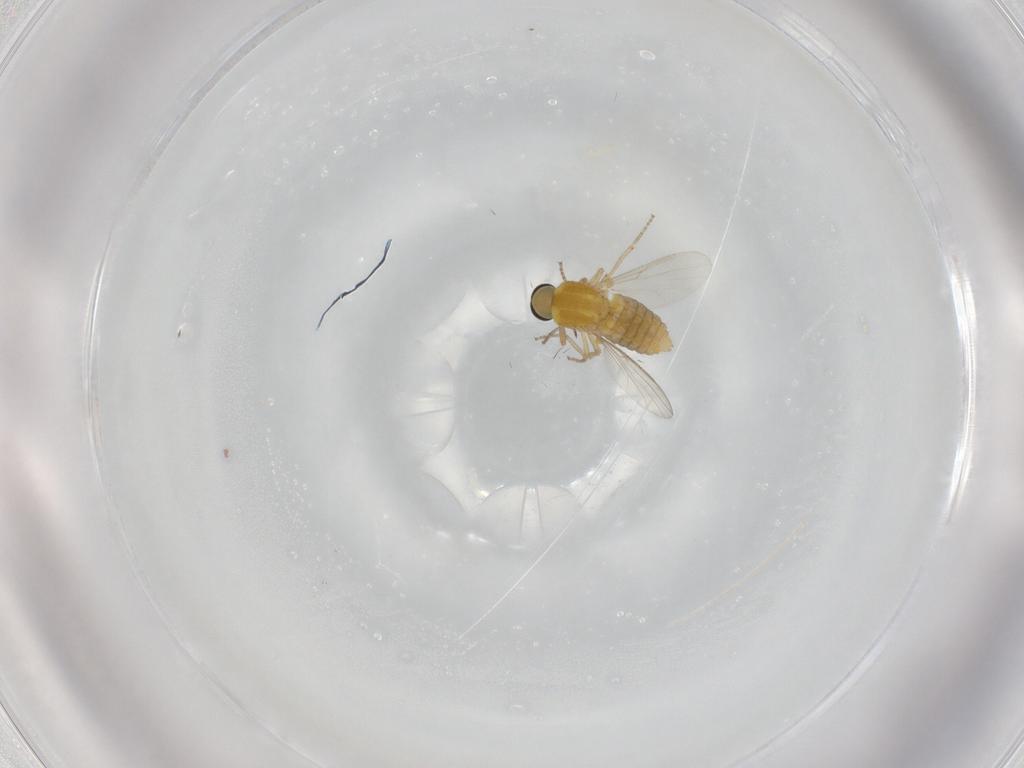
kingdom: Animalia
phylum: Arthropoda
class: Insecta
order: Diptera
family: Ceratopogonidae
